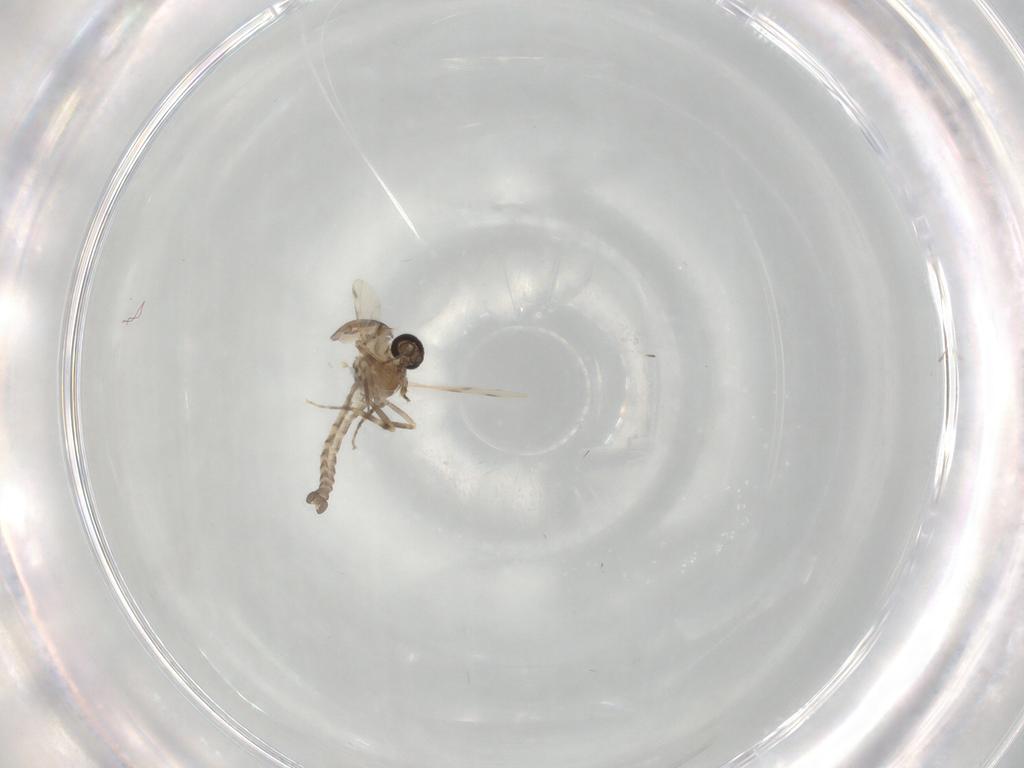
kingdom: Animalia
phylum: Arthropoda
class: Insecta
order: Diptera
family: Ceratopogonidae
